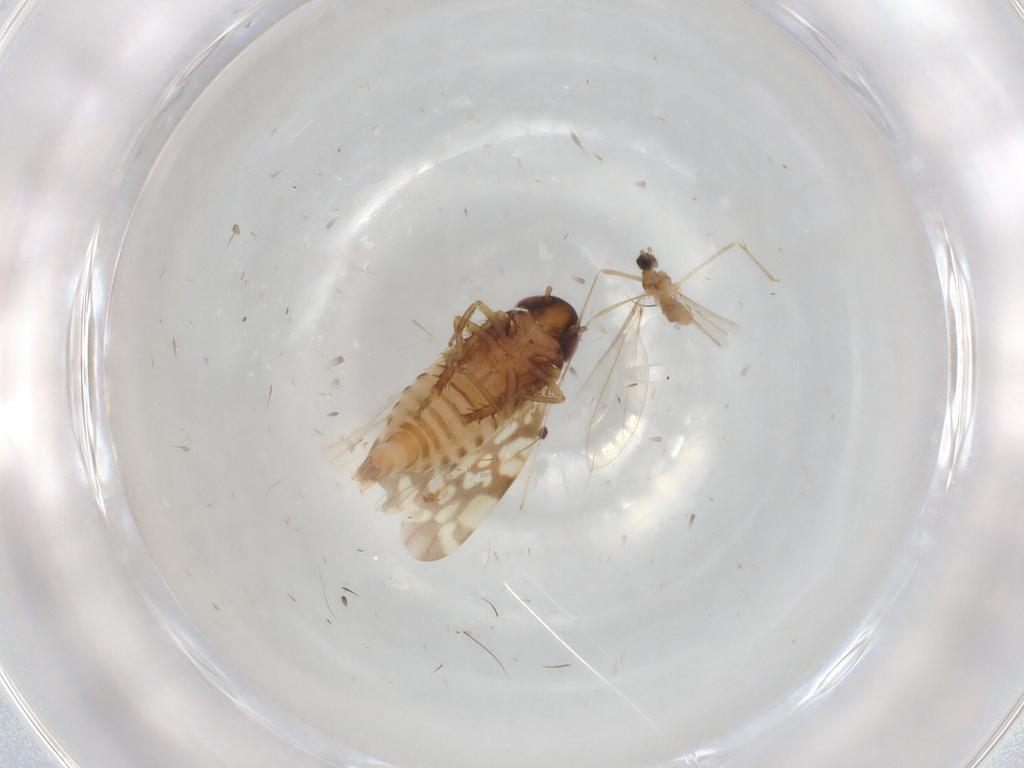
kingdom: Animalia
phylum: Arthropoda
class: Insecta
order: Hemiptera
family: Cicadellidae
